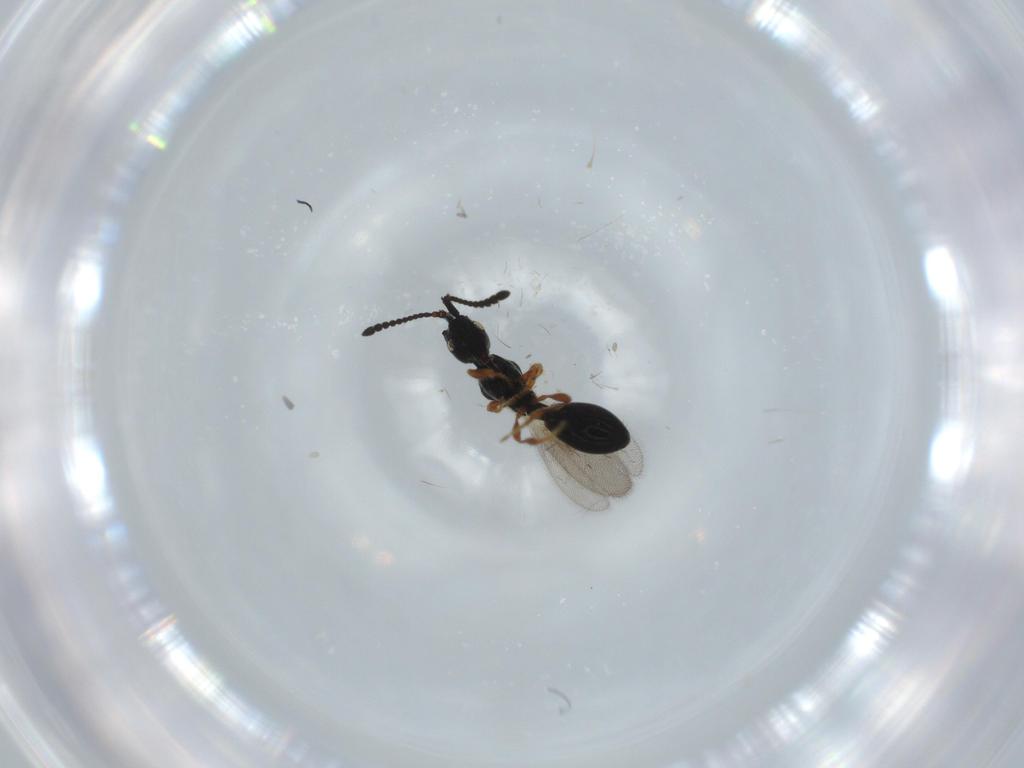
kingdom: Animalia
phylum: Arthropoda
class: Insecta
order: Hymenoptera
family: Diapriidae
